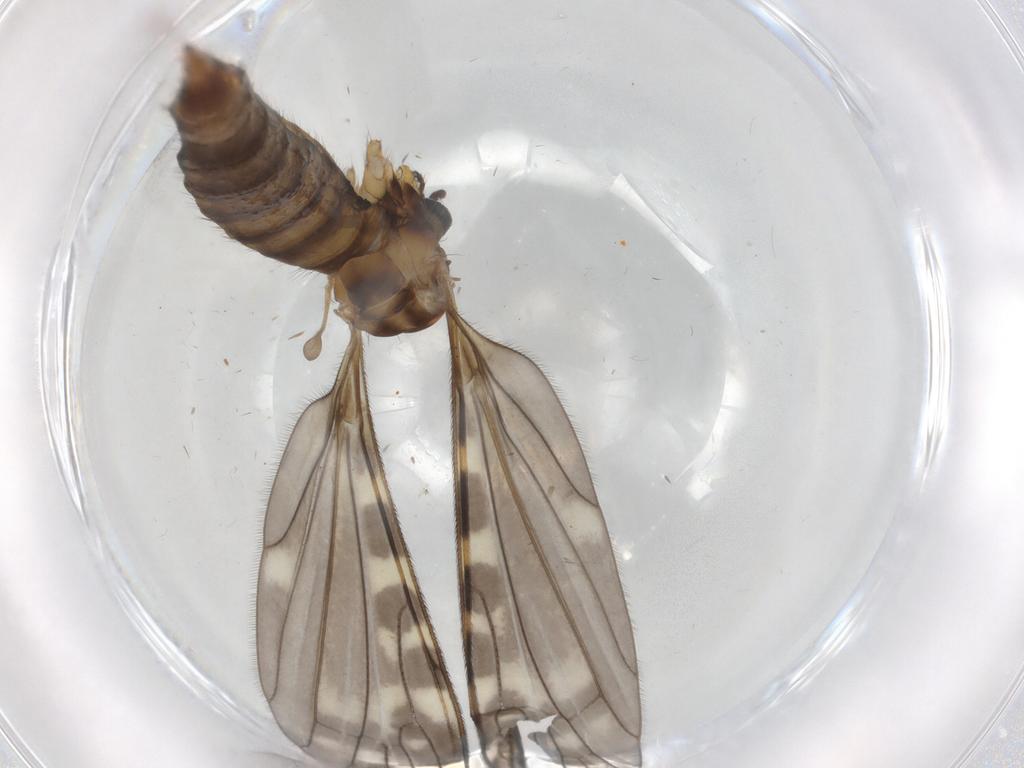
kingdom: Animalia
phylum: Arthropoda
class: Insecta
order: Diptera
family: Limoniidae
